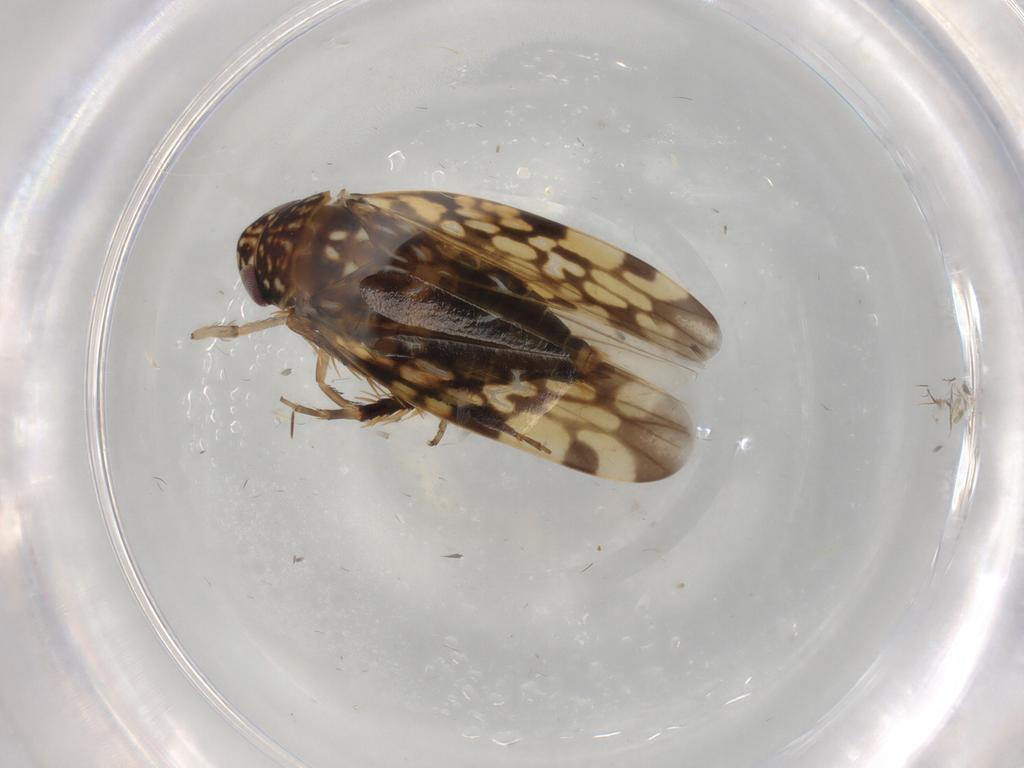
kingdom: Animalia
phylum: Arthropoda
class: Insecta
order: Hemiptera
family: Cicadellidae
